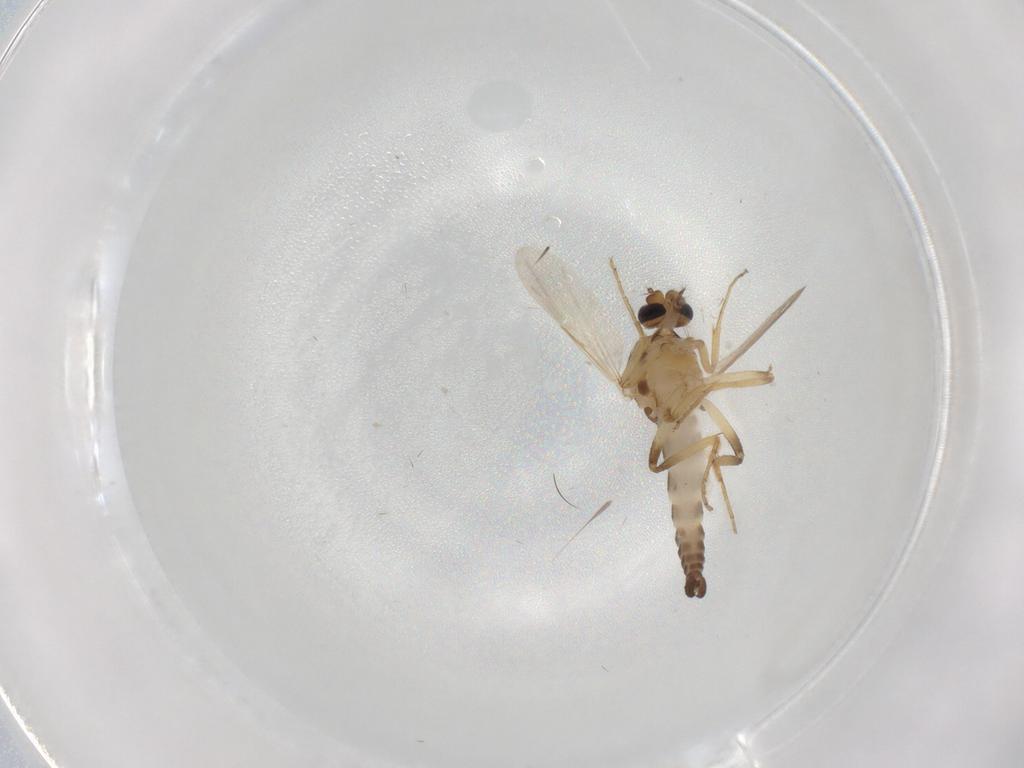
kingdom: Animalia
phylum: Arthropoda
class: Insecta
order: Diptera
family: Ceratopogonidae
